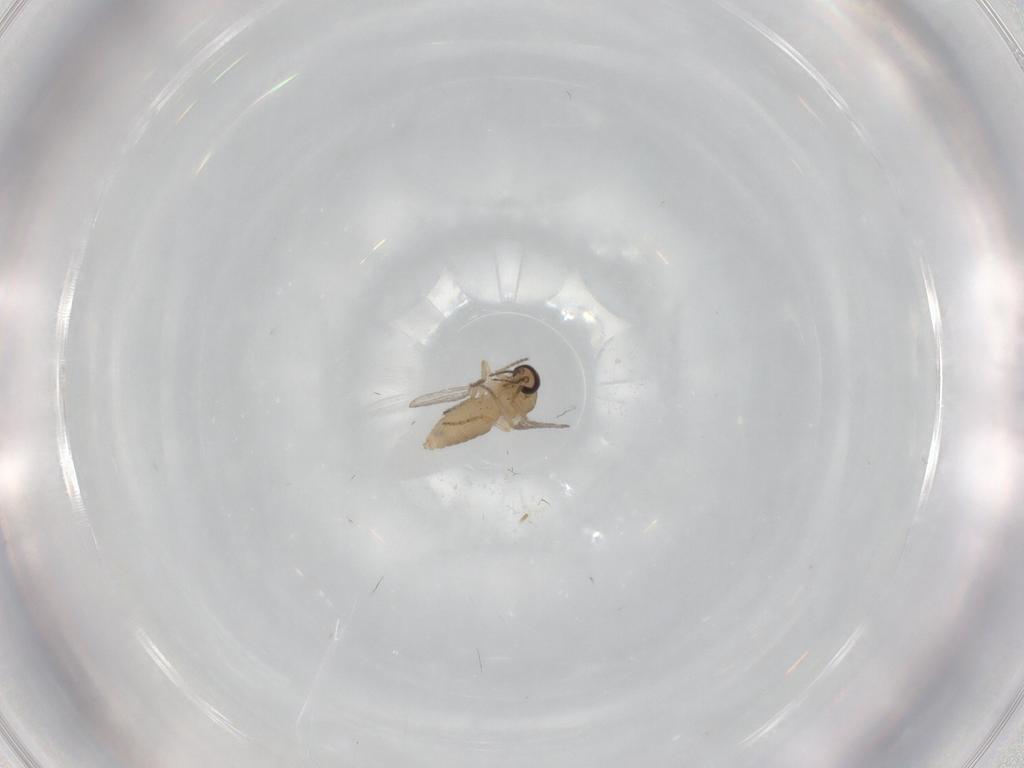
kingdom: Animalia
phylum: Arthropoda
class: Insecta
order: Diptera
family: Ceratopogonidae
